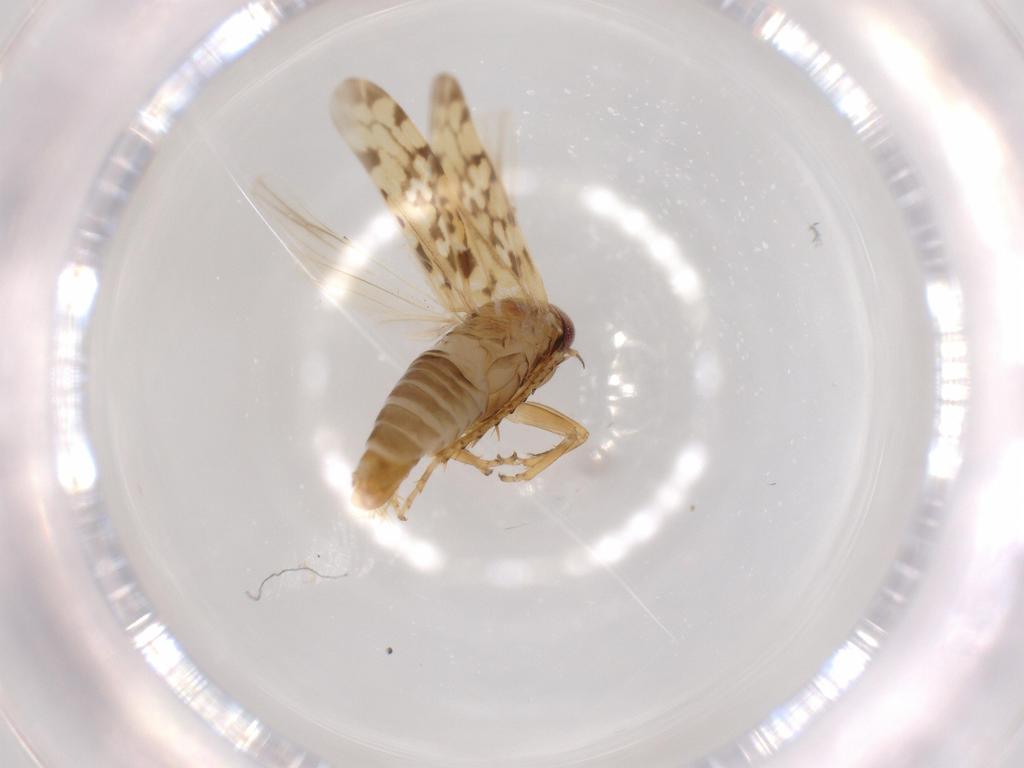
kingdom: Animalia
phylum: Arthropoda
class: Insecta
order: Hemiptera
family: Cicadellidae
